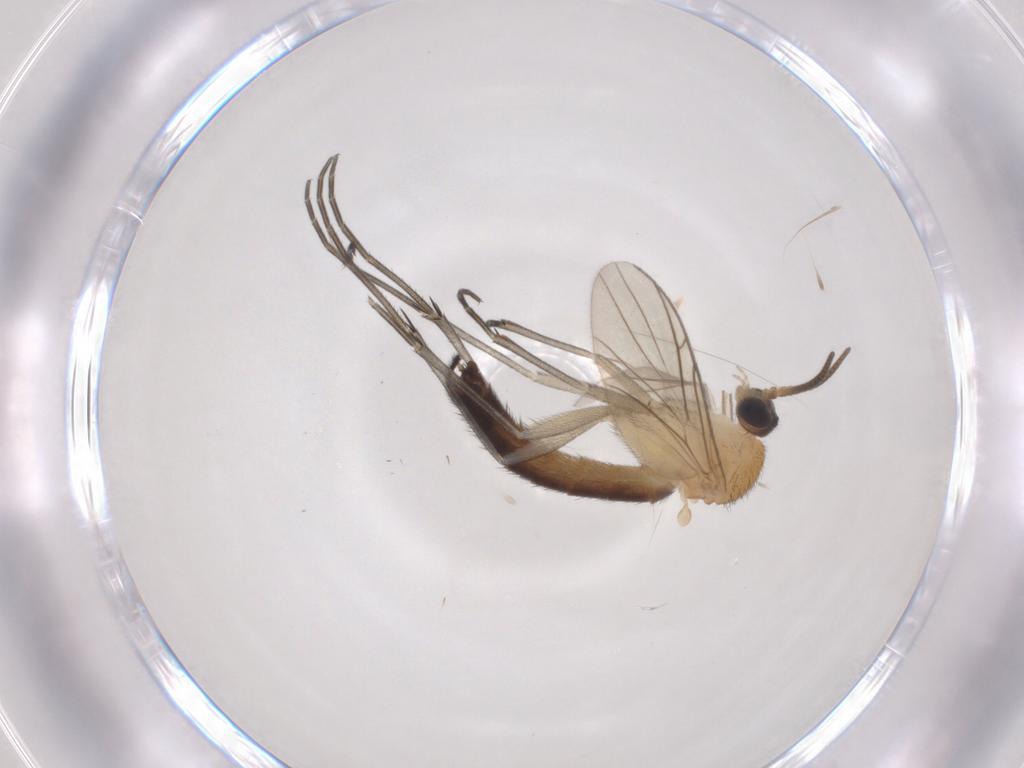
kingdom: Animalia
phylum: Arthropoda
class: Insecta
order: Diptera
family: Keroplatidae
